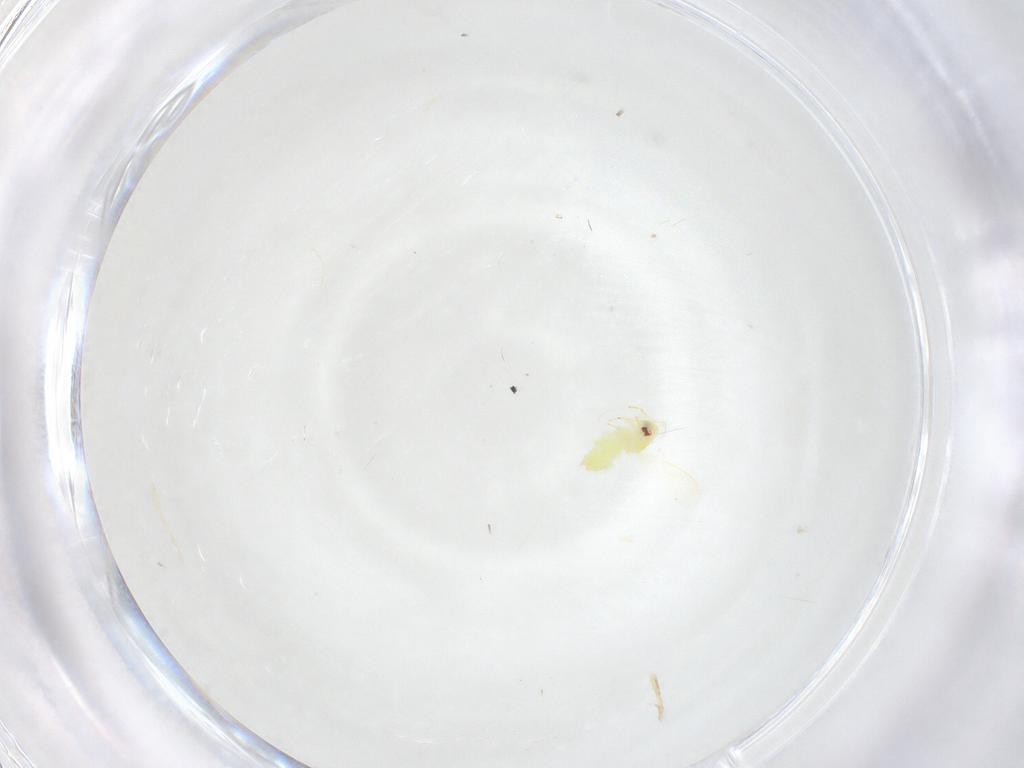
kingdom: Animalia
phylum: Arthropoda
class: Insecta
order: Hemiptera
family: Aleyrodidae
